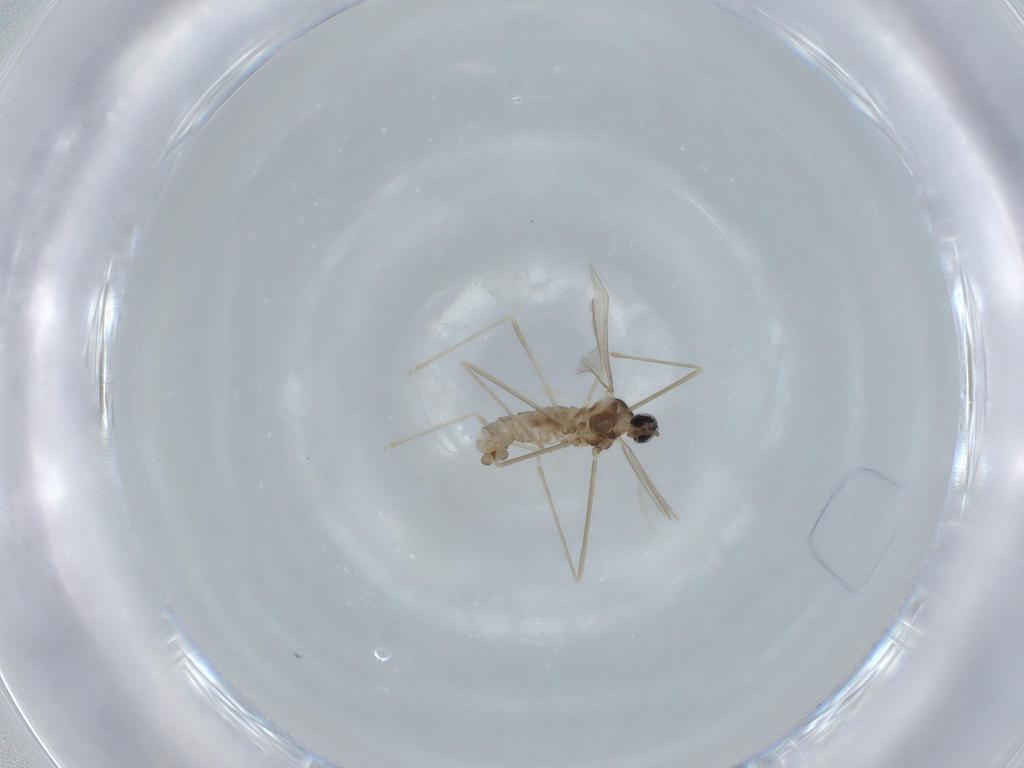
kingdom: Animalia
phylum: Arthropoda
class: Insecta
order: Diptera
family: Cecidomyiidae
